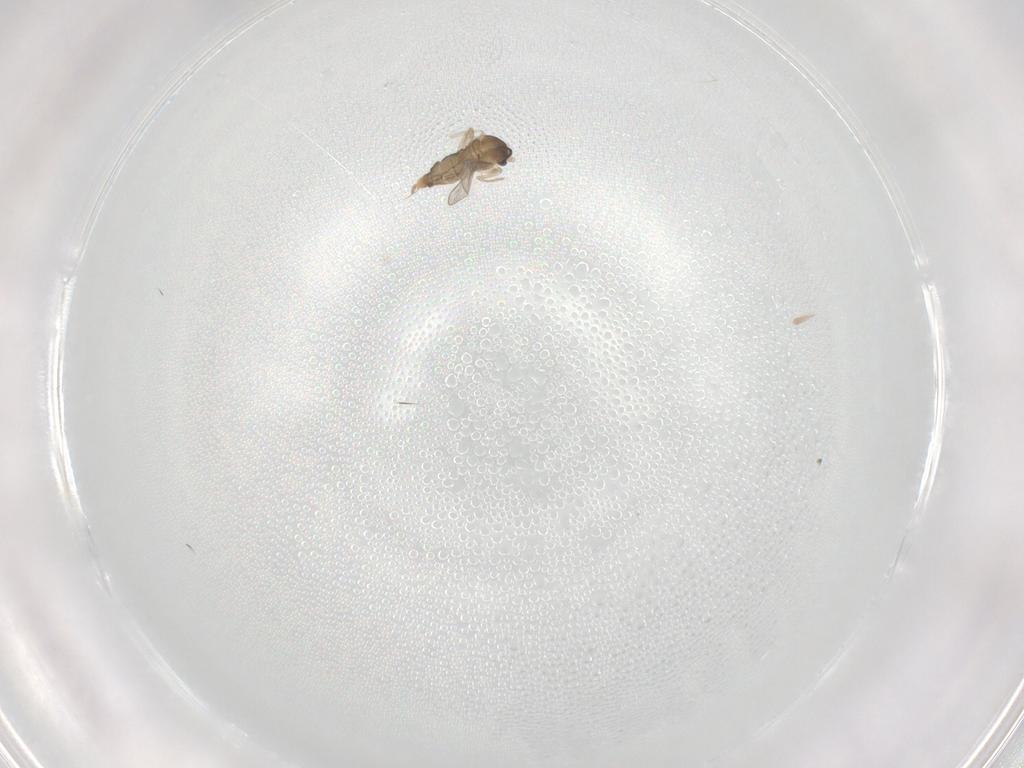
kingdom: Animalia
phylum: Arthropoda
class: Insecta
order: Diptera
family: Cecidomyiidae
